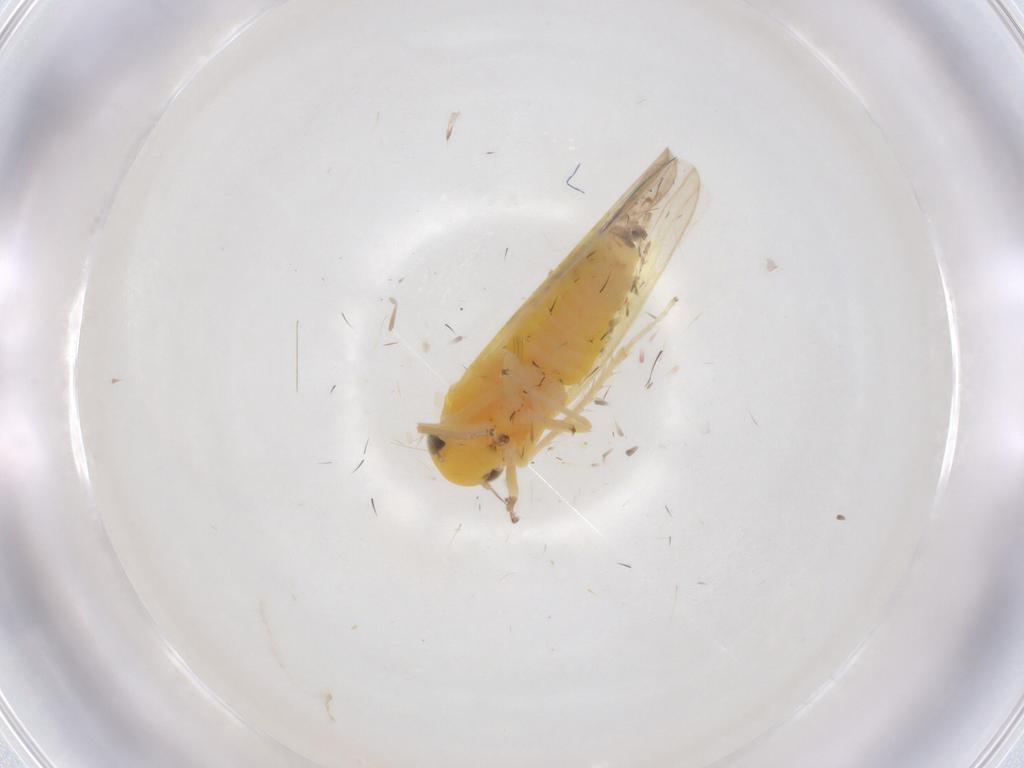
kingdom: Animalia
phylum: Arthropoda
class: Insecta
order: Hemiptera
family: Cicadellidae
